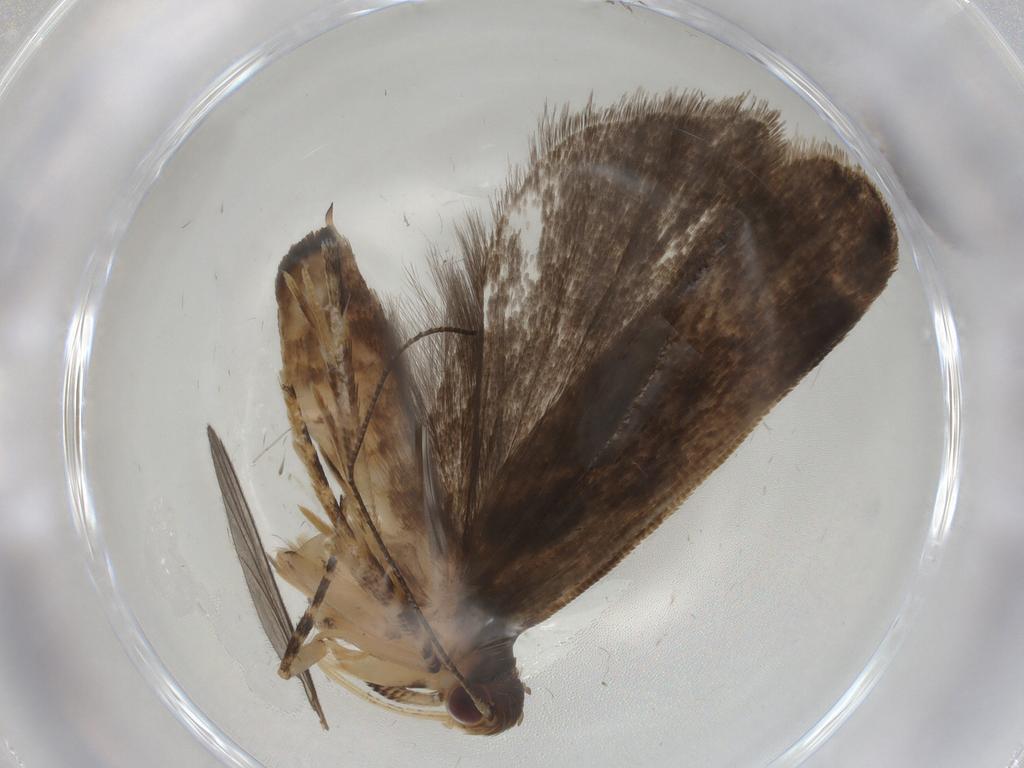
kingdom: Animalia
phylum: Arthropoda
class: Insecta
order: Lepidoptera
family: Gelechiidae
